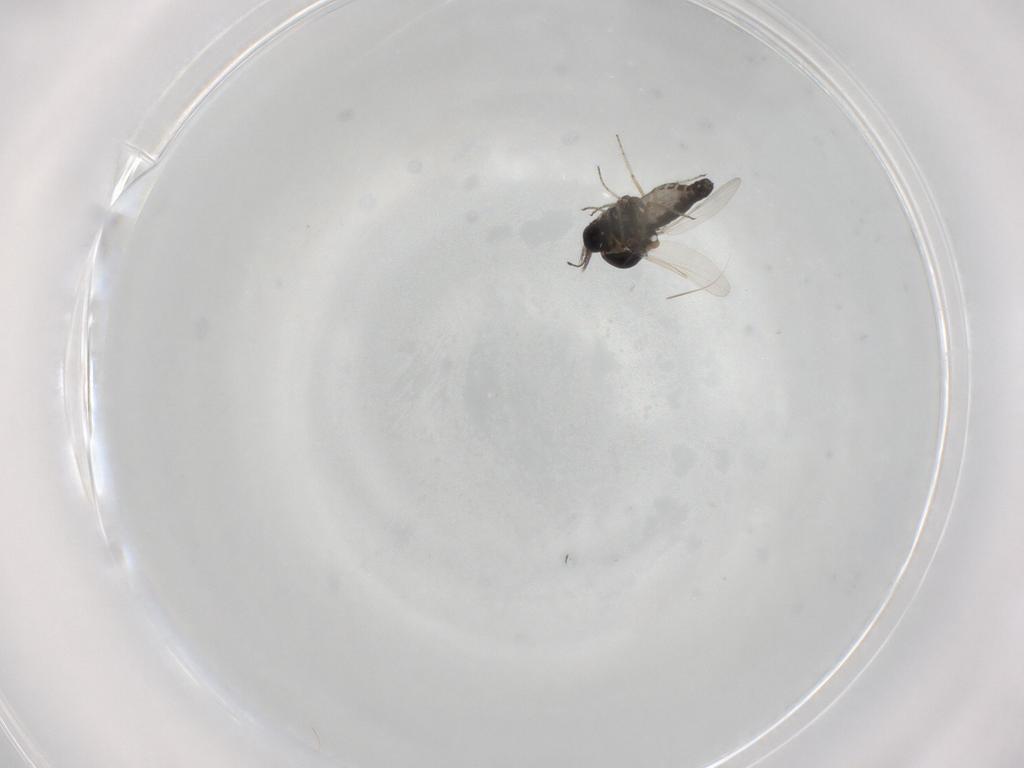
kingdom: Animalia
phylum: Arthropoda
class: Insecta
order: Diptera
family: Ceratopogonidae
